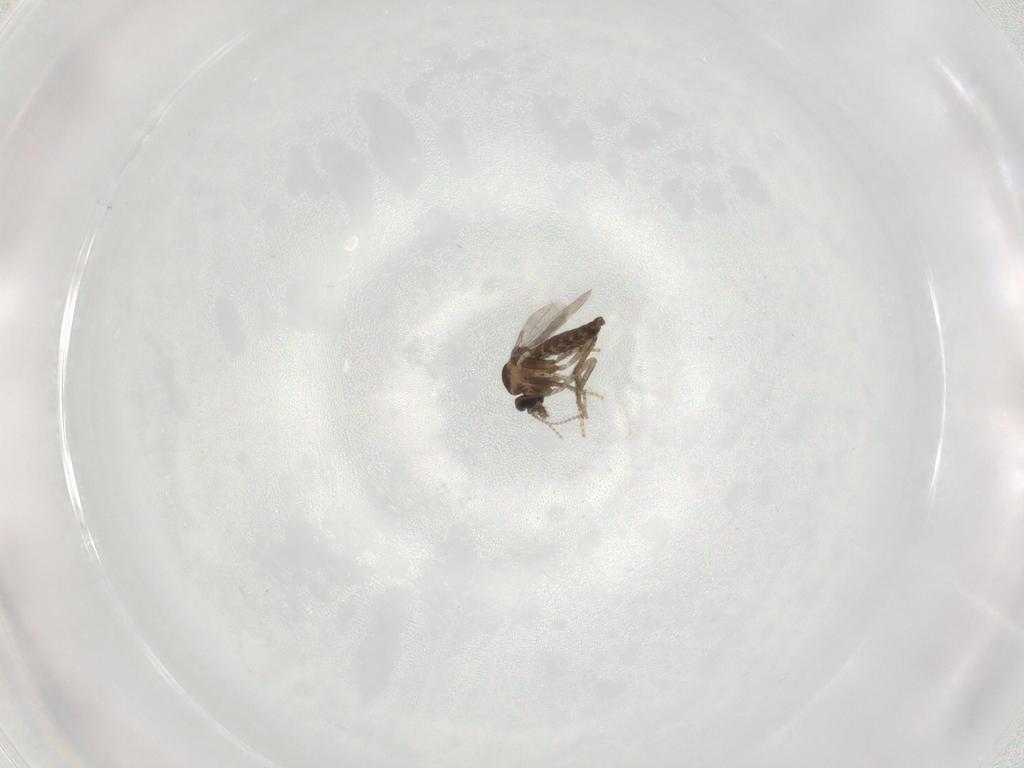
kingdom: Animalia
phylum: Arthropoda
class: Insecta
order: Diptera
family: Ceratopogonidae
